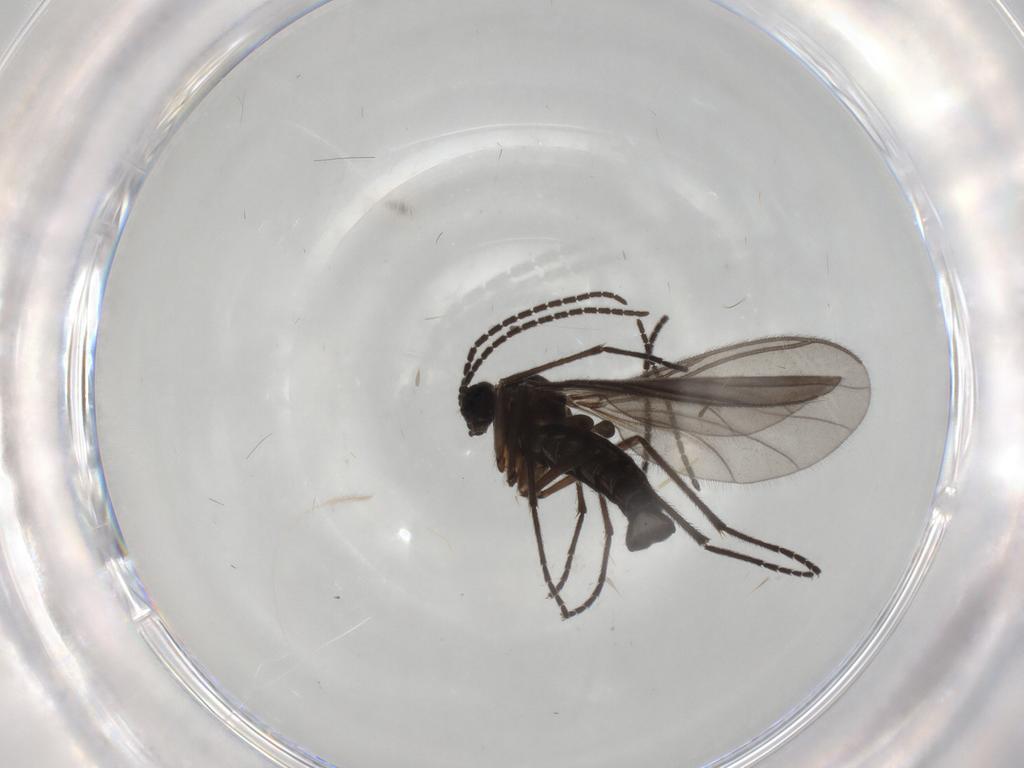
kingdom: Animalia
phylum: Arthropoda
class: Insecta
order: Diptera
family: Sciaridae
